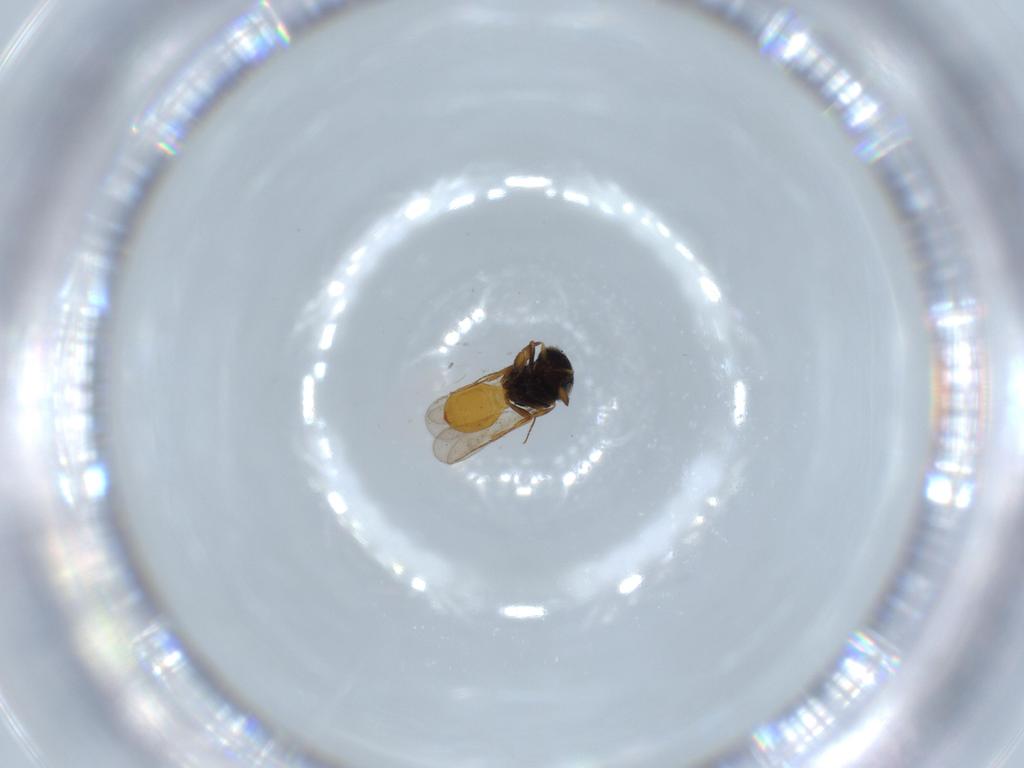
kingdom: Animalia
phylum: Arthropoda
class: Insecta
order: Hymenoptera
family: Scelionidae
